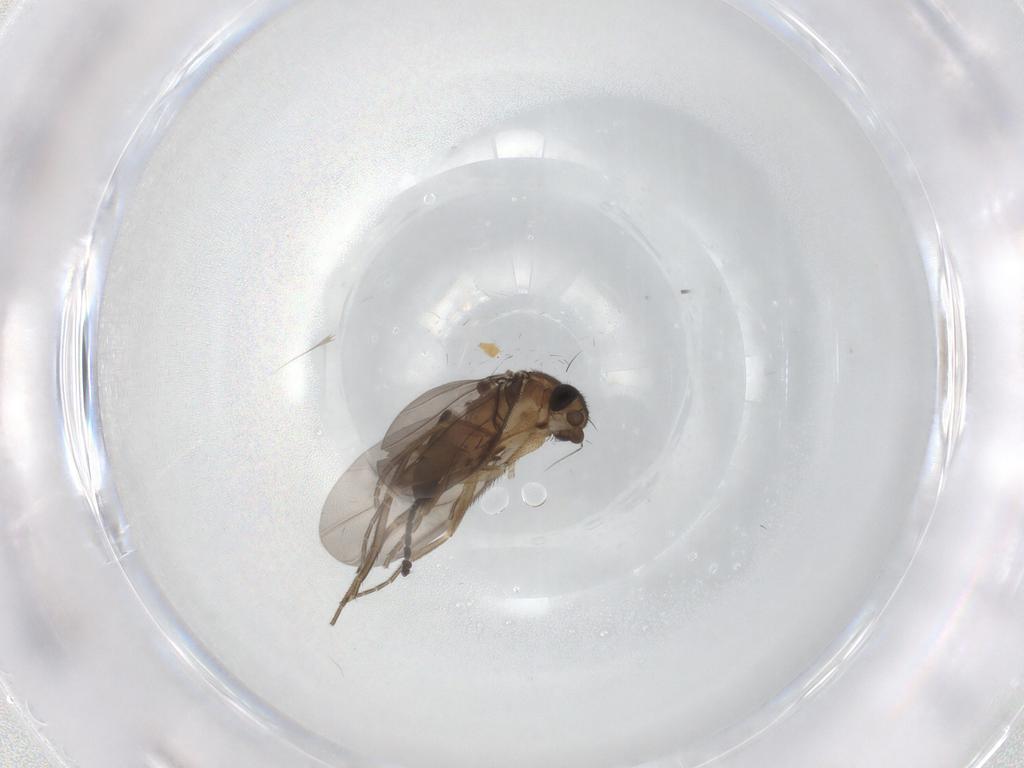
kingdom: Animalia
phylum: Arthropoda
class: Insecta
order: Diptera
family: Phoridae
